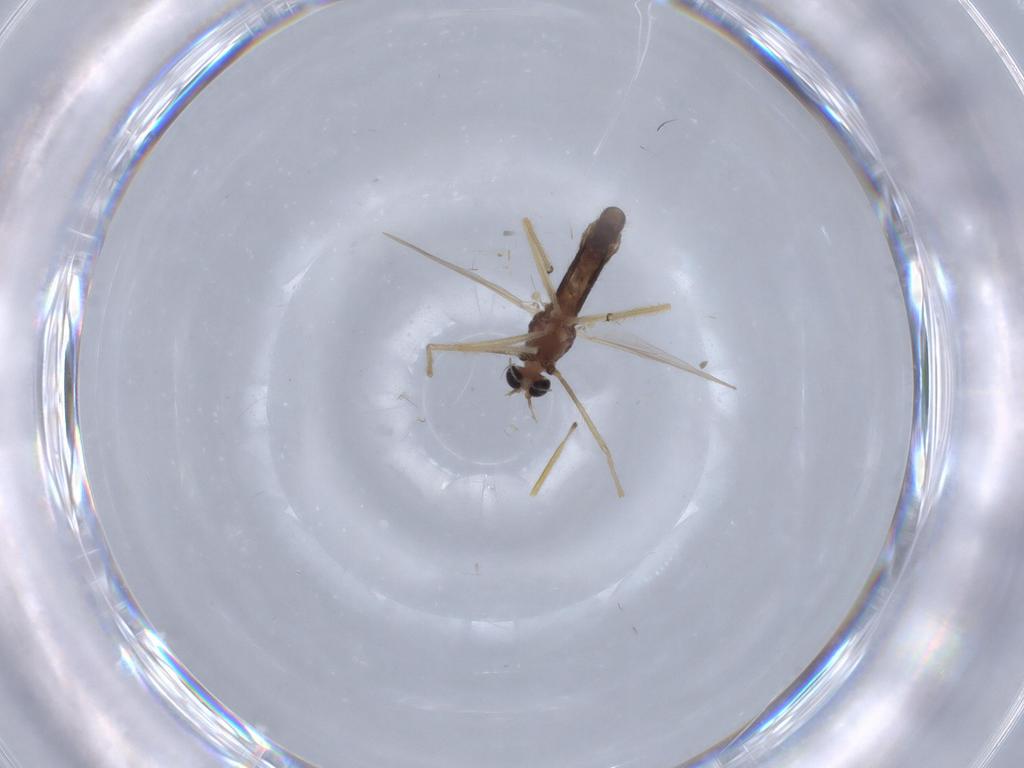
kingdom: Animalia
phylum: Arthropoda
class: Insecta
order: Diptera
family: Chironomidae
